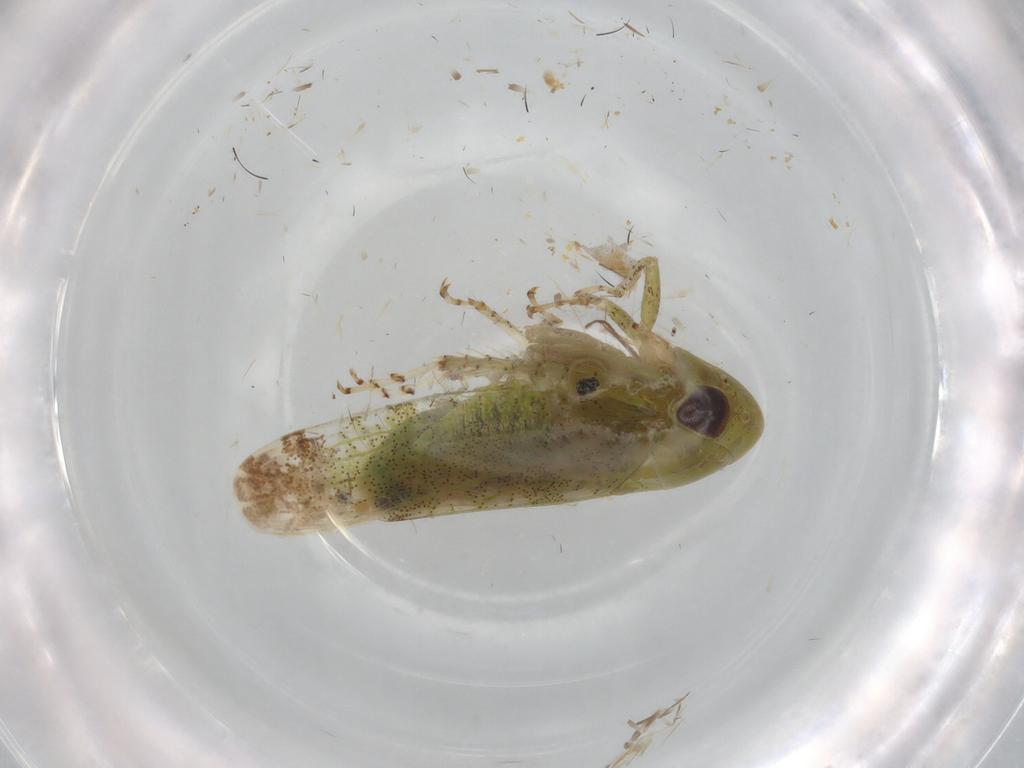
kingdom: Animalia
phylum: Arthropoda
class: Insecta
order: Hemiptera
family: Cicadellidae
